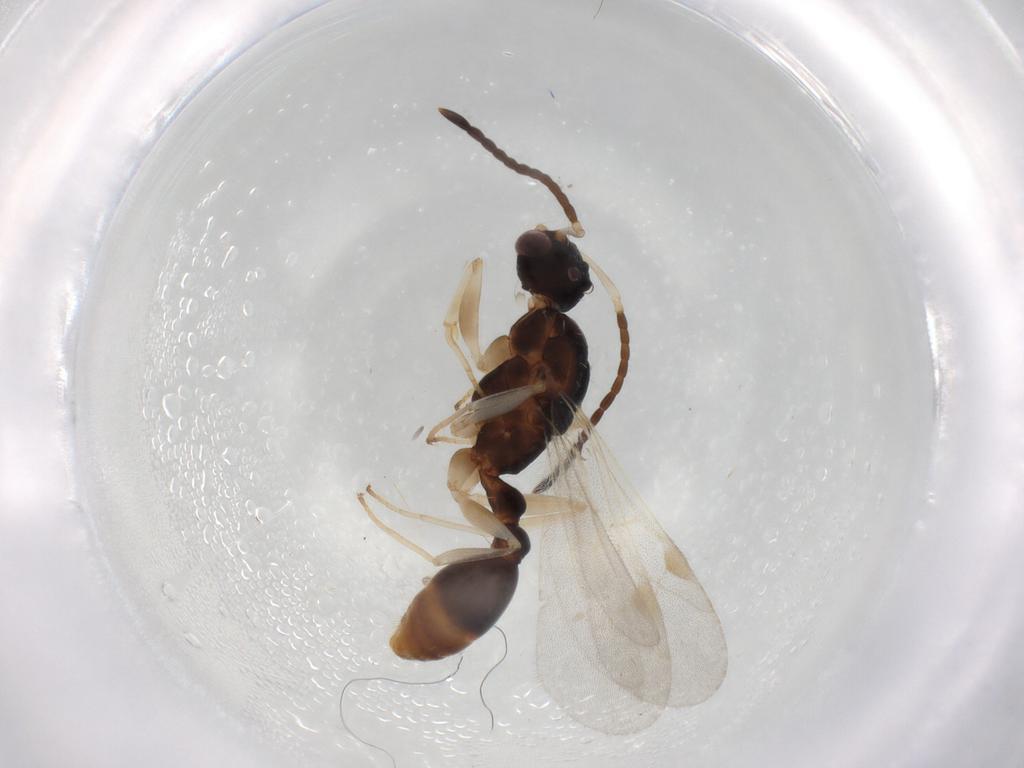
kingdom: Animalia
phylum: Arthropoda
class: Insecta
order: Hymenoptera
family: Formicidae
